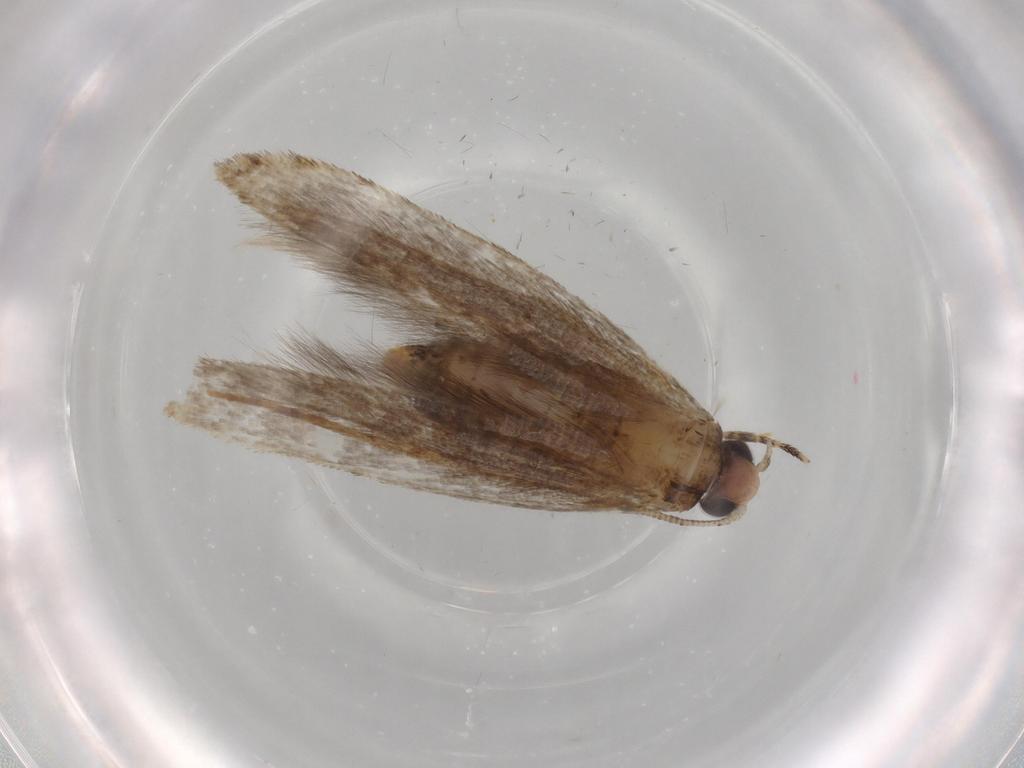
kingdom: Animalia
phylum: Arthropoda
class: Insecta
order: Lepidoptera
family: Tineidae
